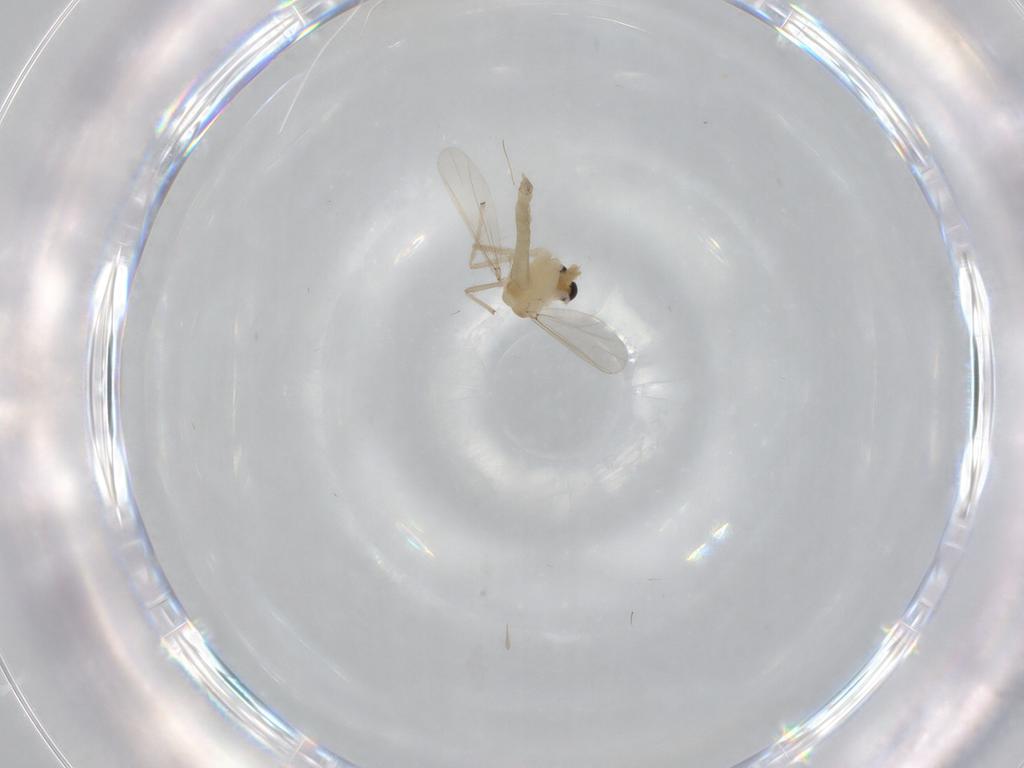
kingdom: Animalia
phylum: Arthropoda
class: Insecta
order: Diptera
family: Chironomidae
